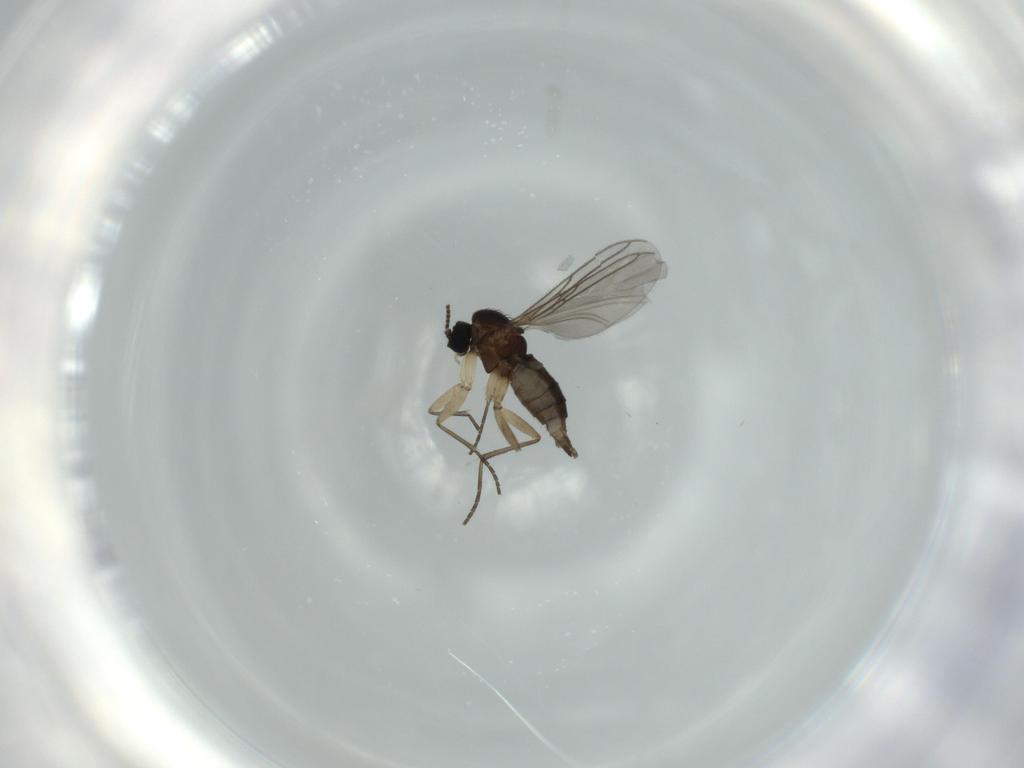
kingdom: Animalia
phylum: Arthropoda
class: Insecta
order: Diptera
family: Sciaridae
